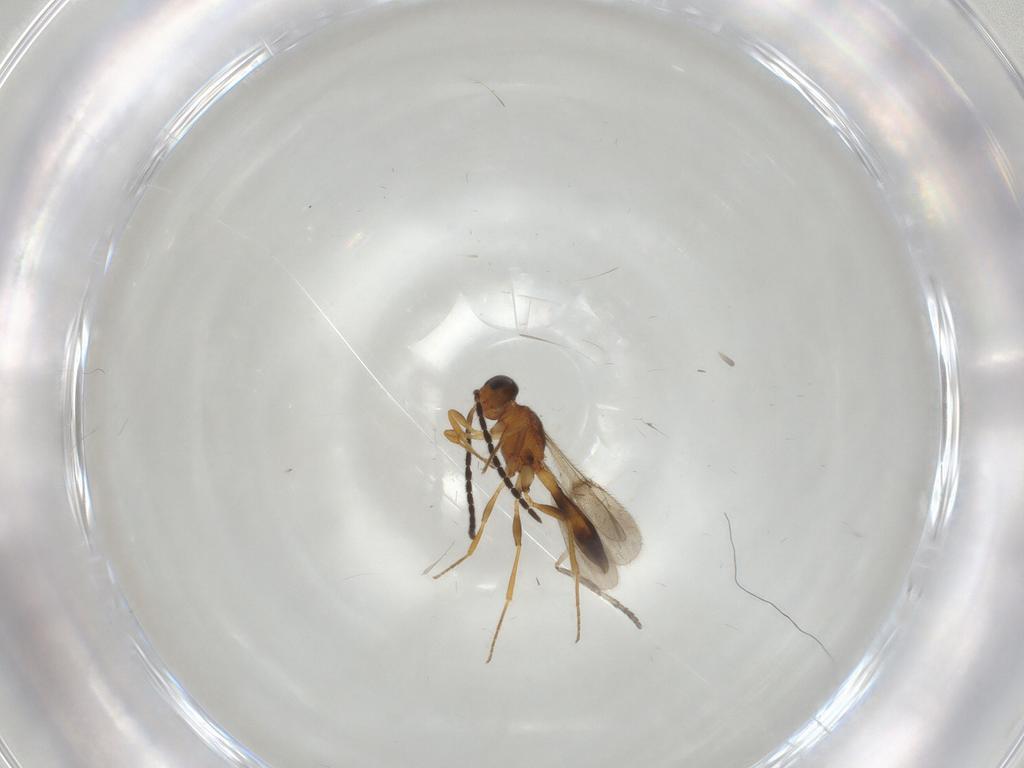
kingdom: Animalia
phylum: Arthropoda
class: Insecta
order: Hymenoptera
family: Scelionidae
